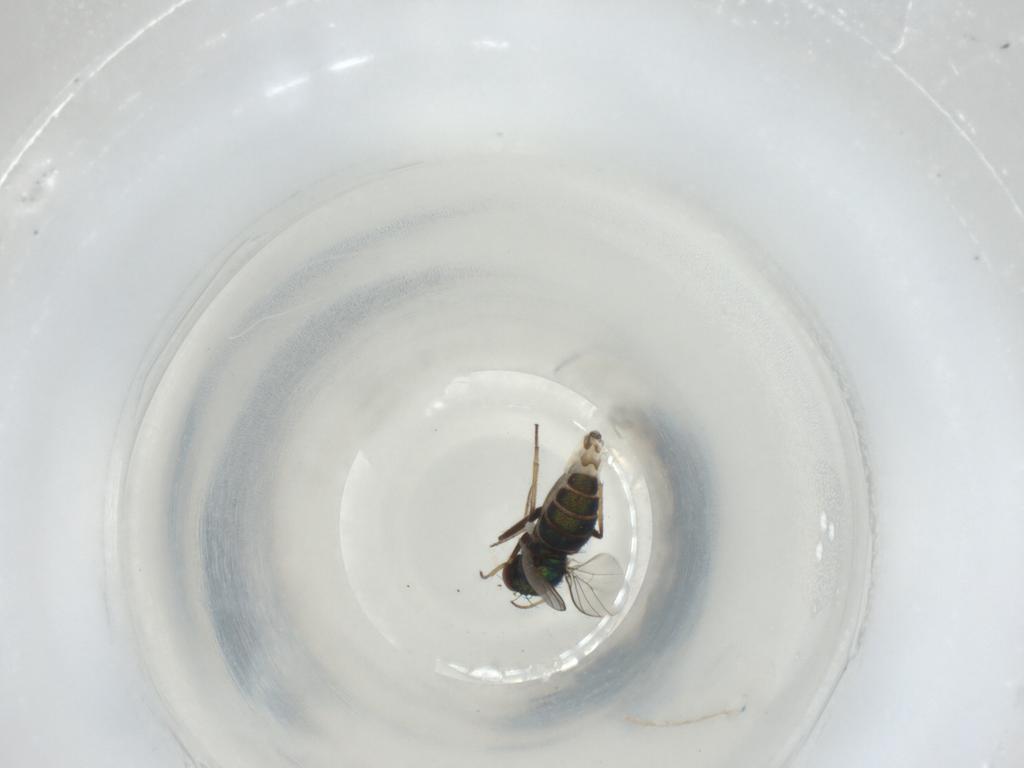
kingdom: Animalia
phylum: Arthropoda
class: Insecta
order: Diptera
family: Dolichopodidae
